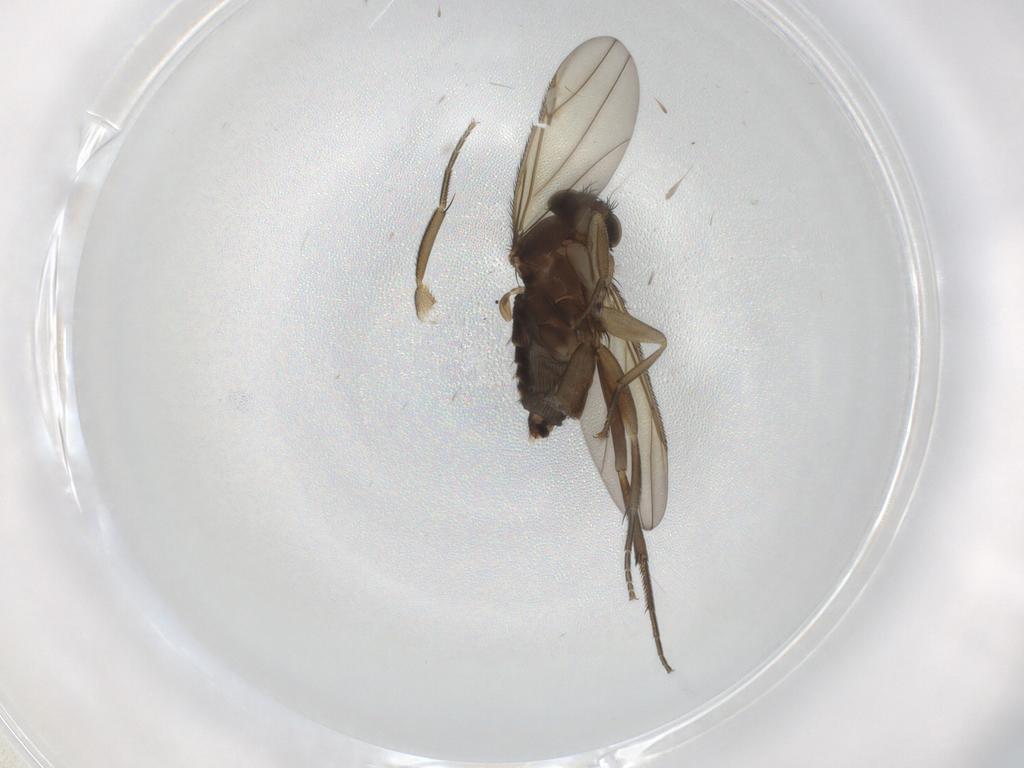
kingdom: Animalia
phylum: Arthropoda
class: Insecta
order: Diptera
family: Phoridae
